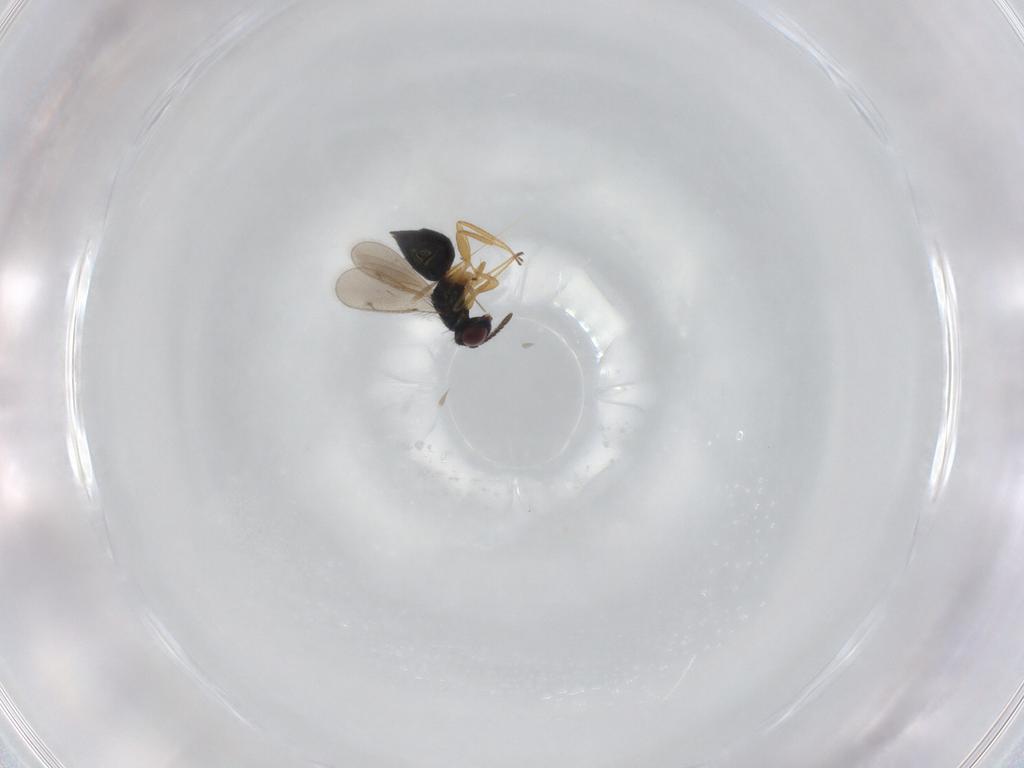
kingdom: Animalia
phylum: Arthropoda
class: Insecta
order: Hymenoptera
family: Tetracampidae
